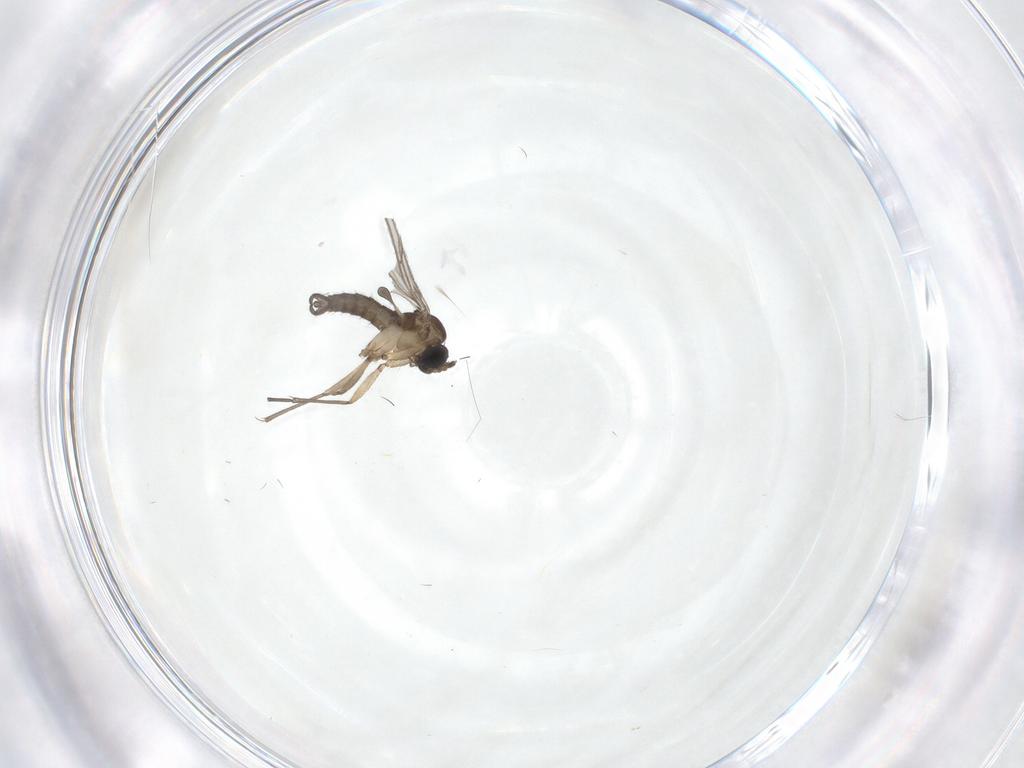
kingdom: Animalia
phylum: Arthropoda
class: Insecta
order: Diptera
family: Sciaridae
